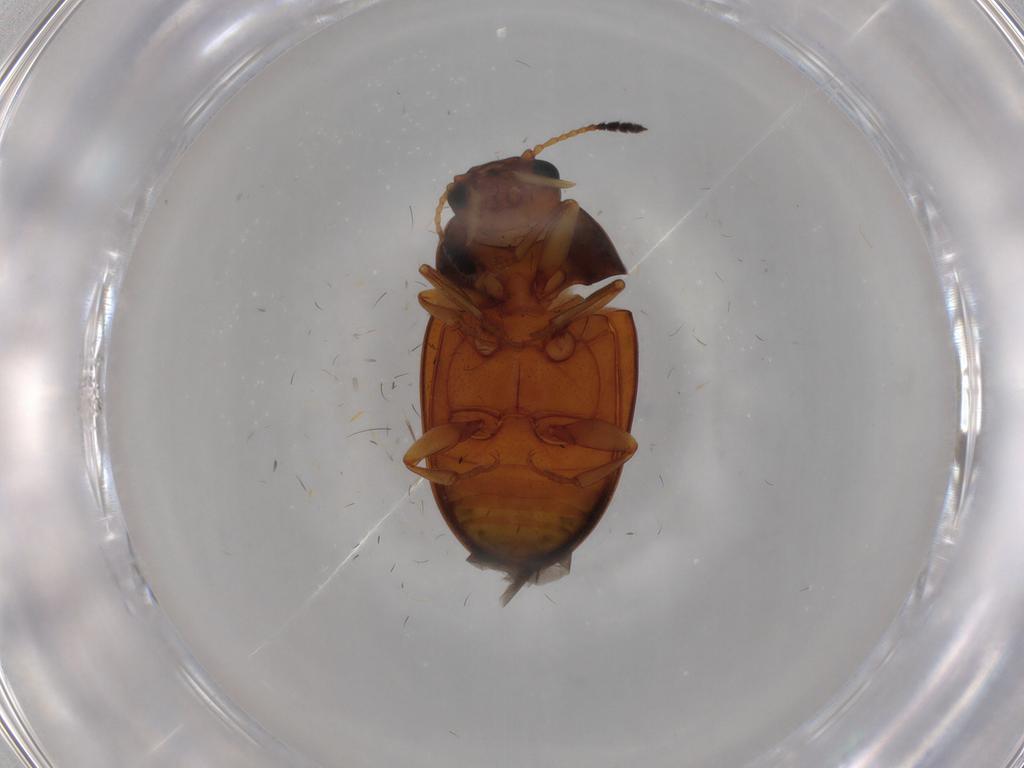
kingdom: Animalia
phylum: Arthropoda
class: Insecta
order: Coleoptera
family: Erotylidae
